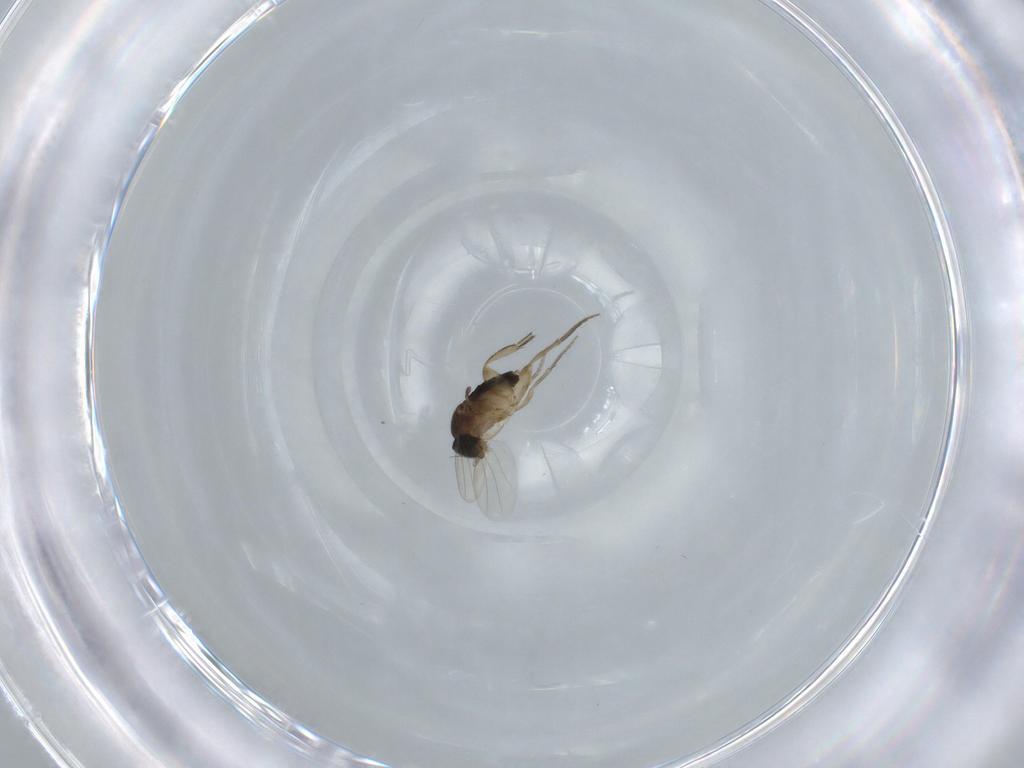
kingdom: Animalia
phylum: Arthropoda
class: Insecta
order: Diptera
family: Phoridae
